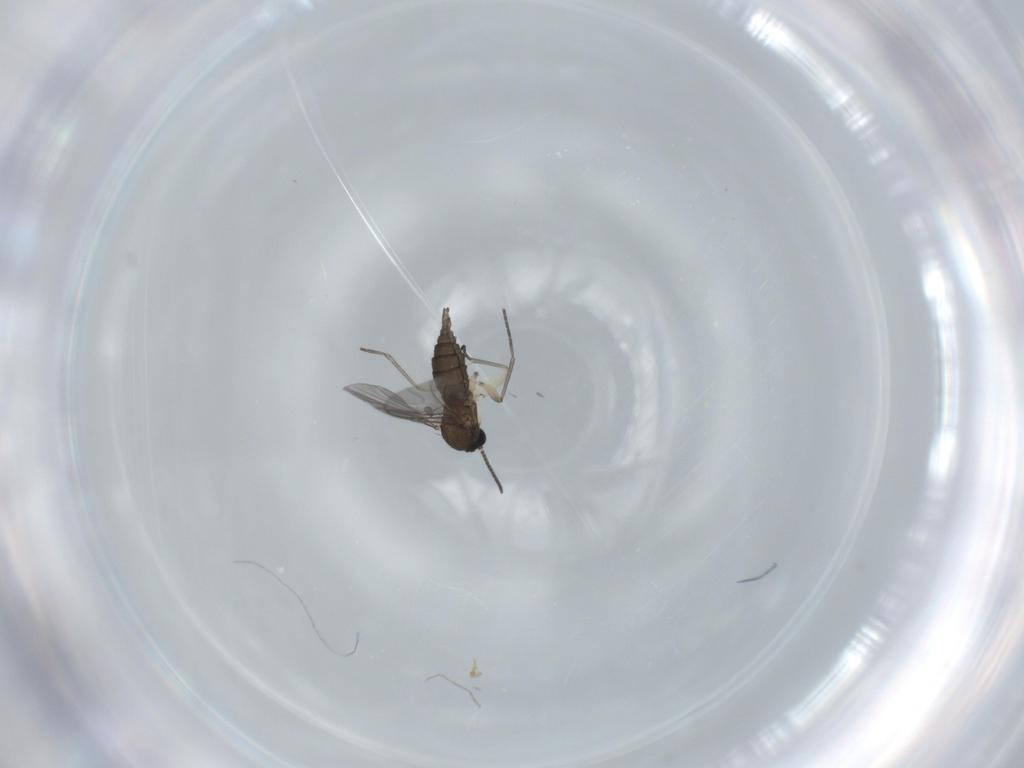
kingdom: Animalia
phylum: Arthropoda
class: Insecta
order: Diptera
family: Sciaridae
